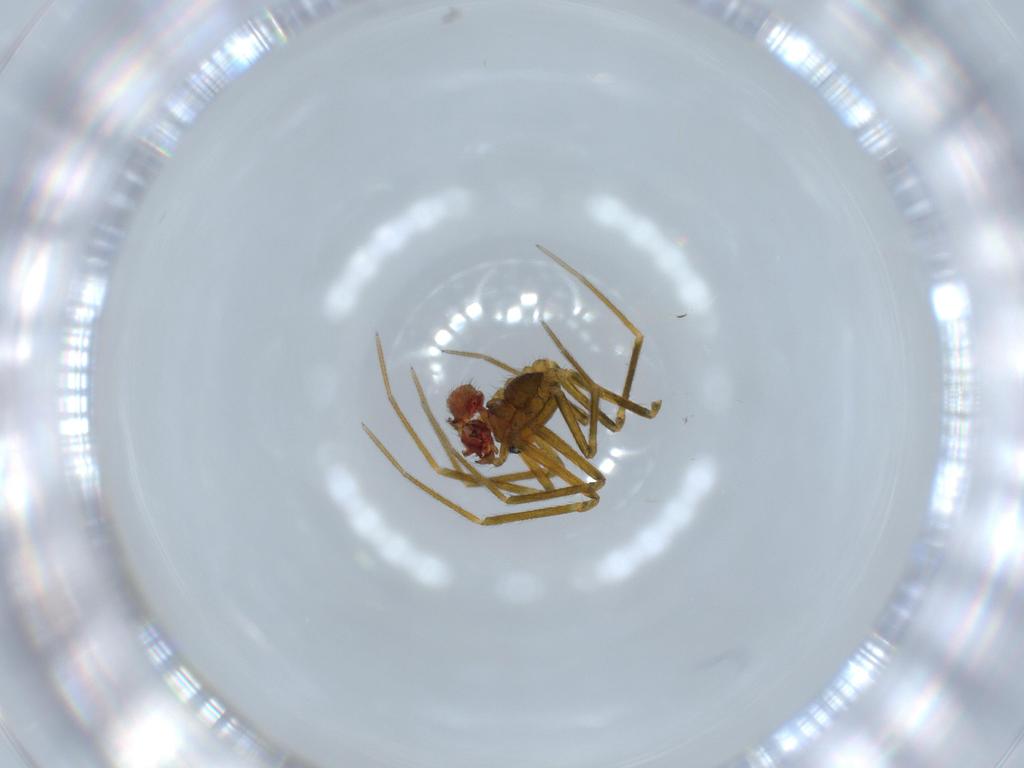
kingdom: Animalia
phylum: Arthropoda
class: Arachnida
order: Araneae
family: Linyphiidae
